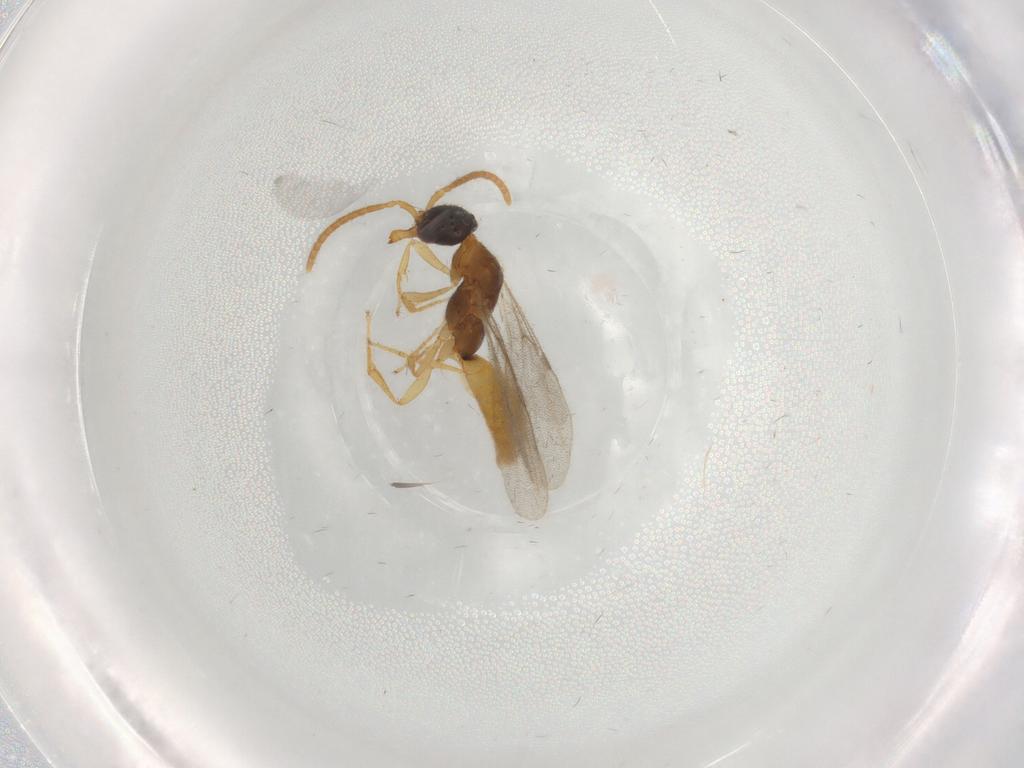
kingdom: Animalia
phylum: Arthropoda
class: Insecta
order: Hymenoptera
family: Bethylidae
